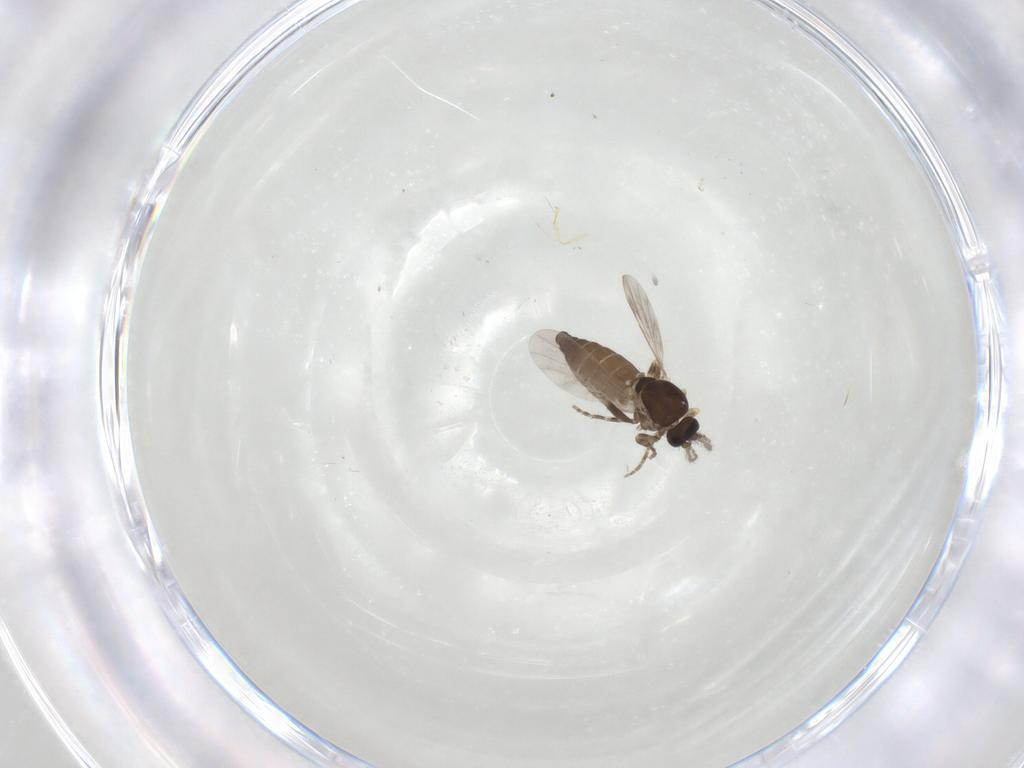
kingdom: Animalia
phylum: Arthropoda
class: Insecta
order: Diptera
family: Ceratopogonidae
